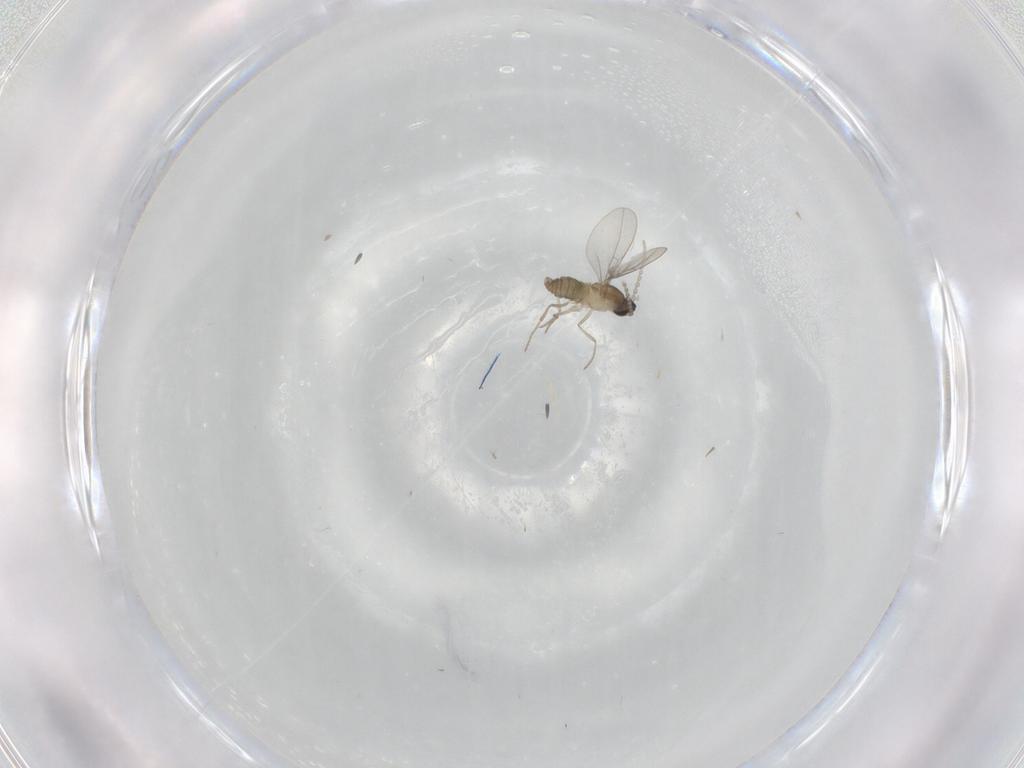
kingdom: Animalia
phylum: Arthropoda
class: Insecta
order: Diptera
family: Cecidomyiidae
